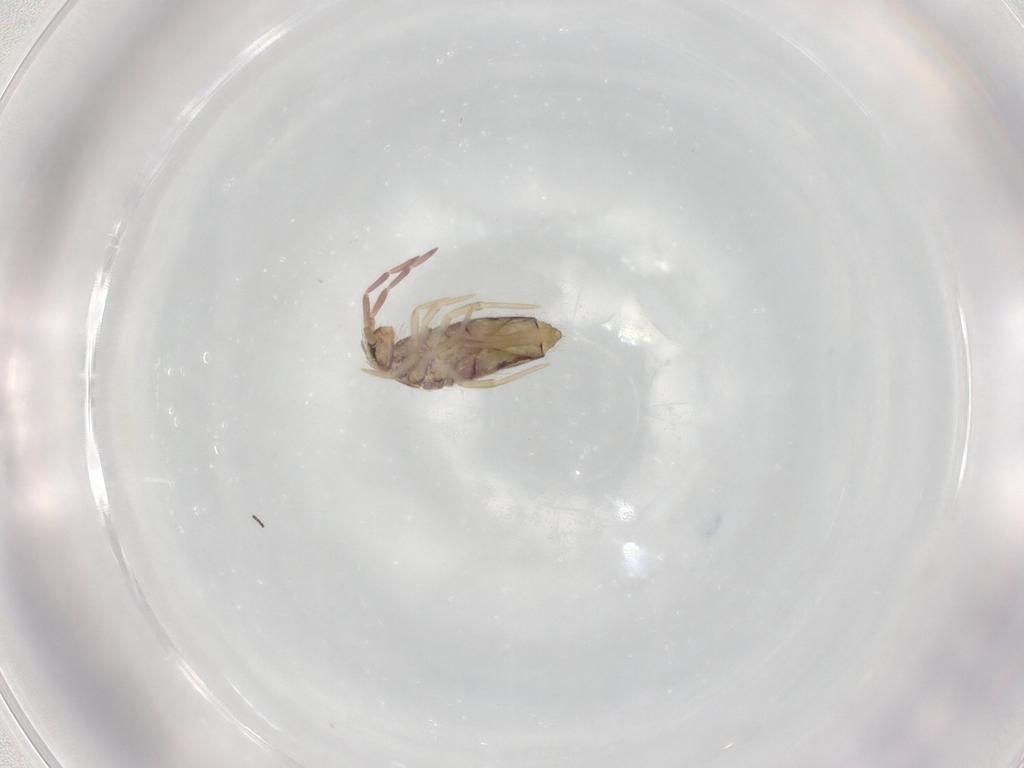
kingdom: Animalia
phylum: Arthropoda
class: Collembola
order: Entomobryomorpha
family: Entomobryidae
